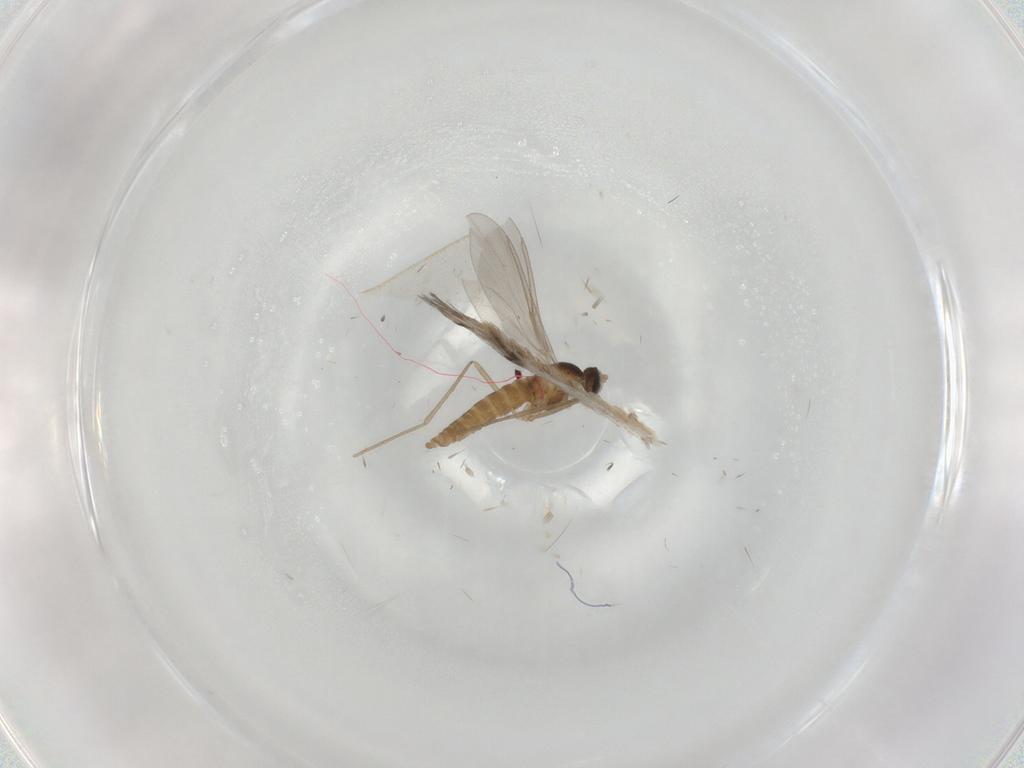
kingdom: Animalia
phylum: Arthropoda
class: Insecta
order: Diptera
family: Cecidomyiidae
